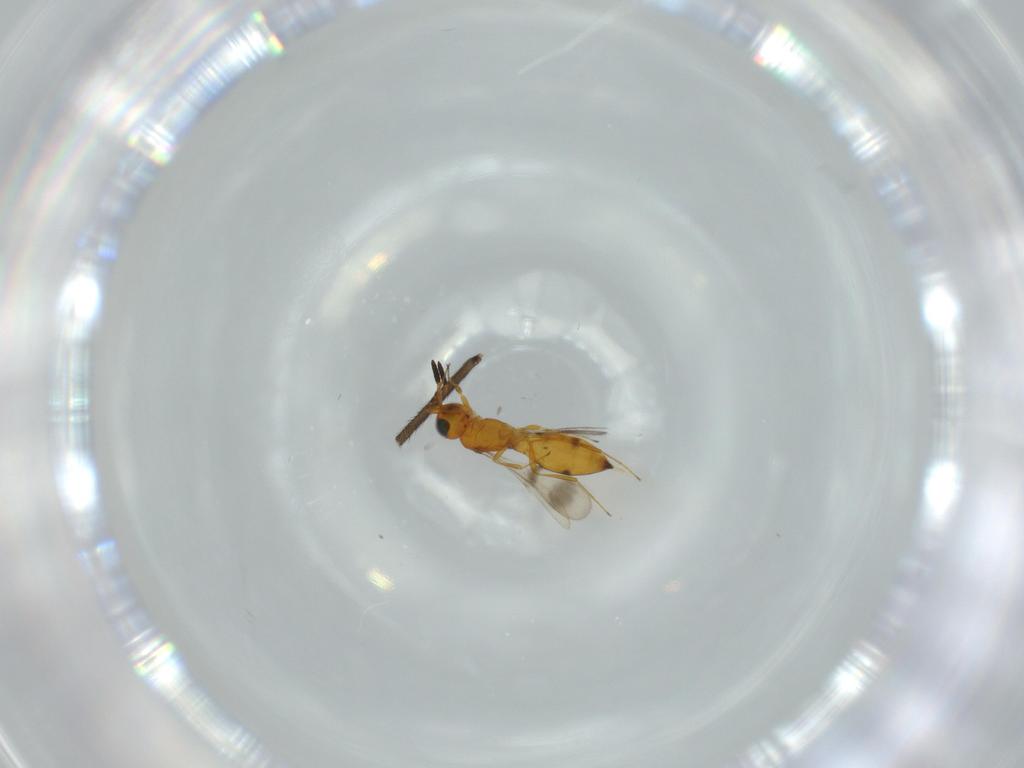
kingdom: Animalia
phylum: Arthropoda
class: Insecta
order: Hymenoptera
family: Scelionidae
